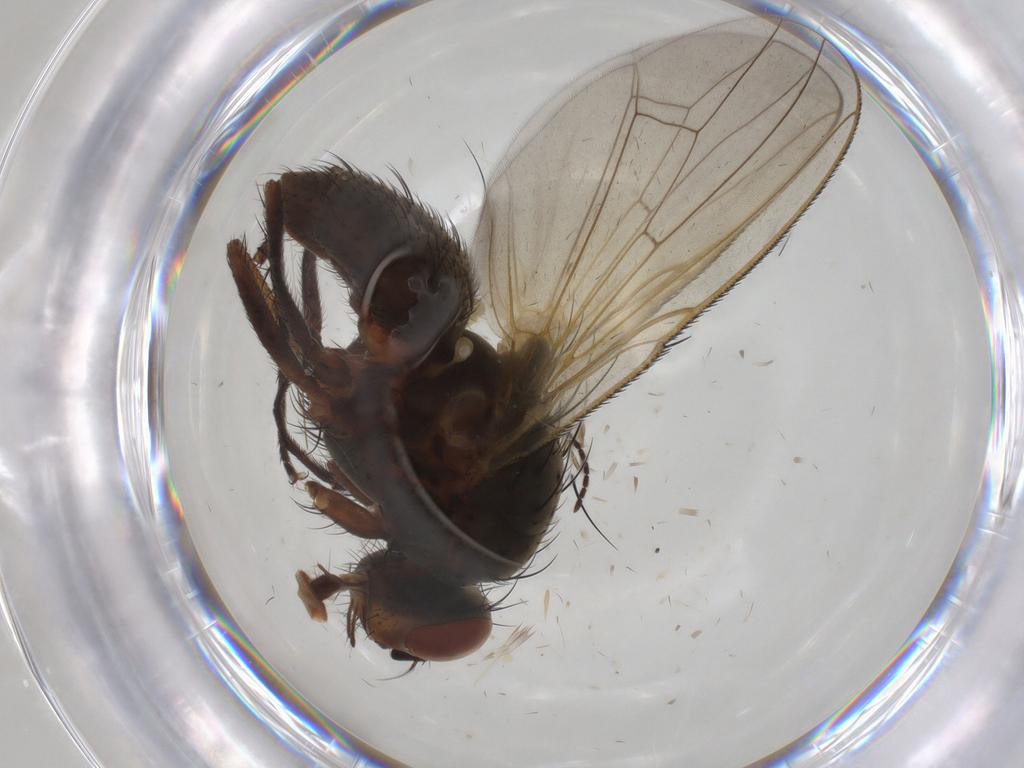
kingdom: Animalia
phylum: Arthropoda
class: Insecta
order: Diptera
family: Anthomyiidae
